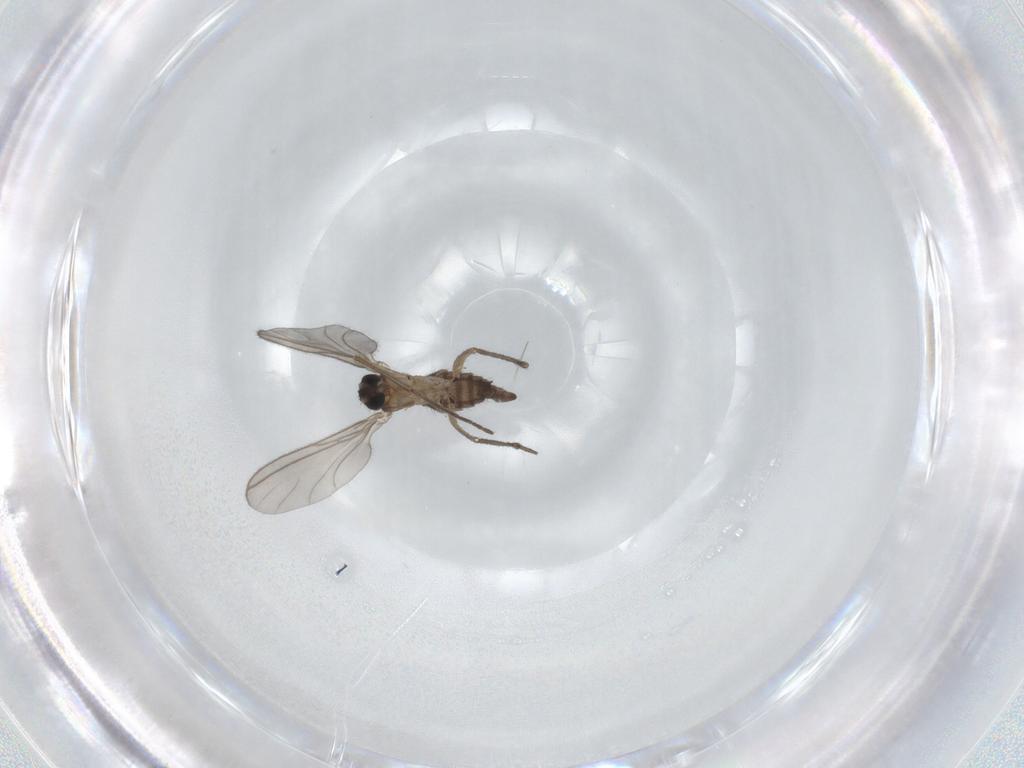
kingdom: Animalia
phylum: Arthropoda
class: Insecta
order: Diptera
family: Sciaridae
